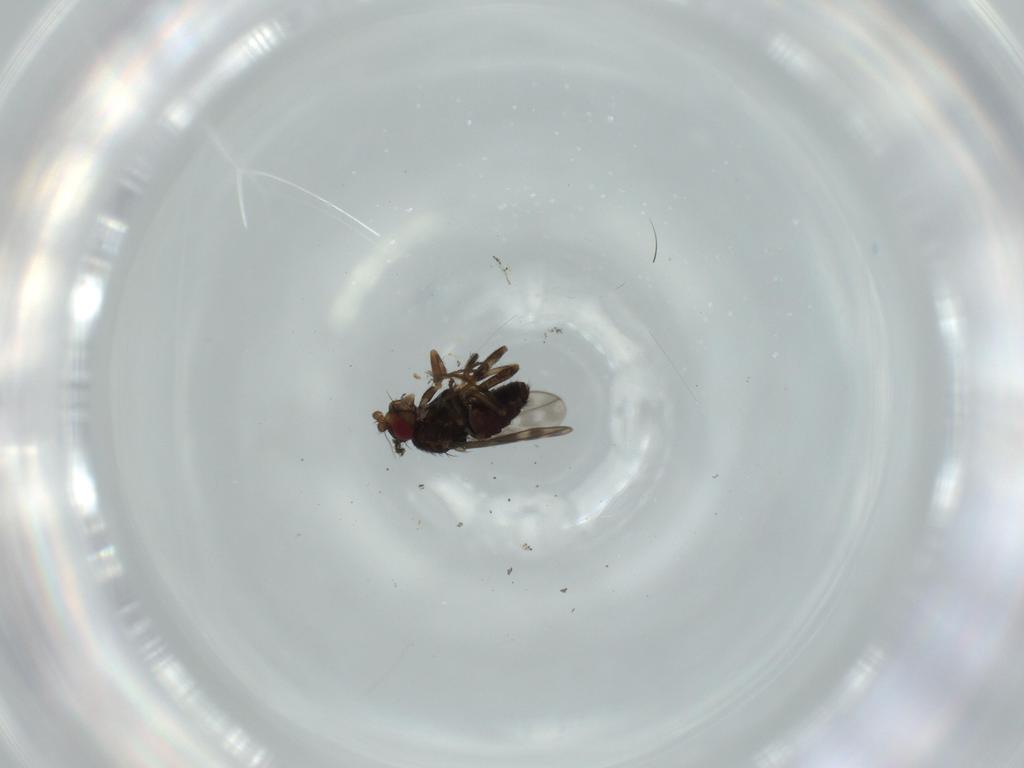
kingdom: Animalia
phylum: Arthropoda
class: Insecta
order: Diptera
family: Sphaeroceridae
